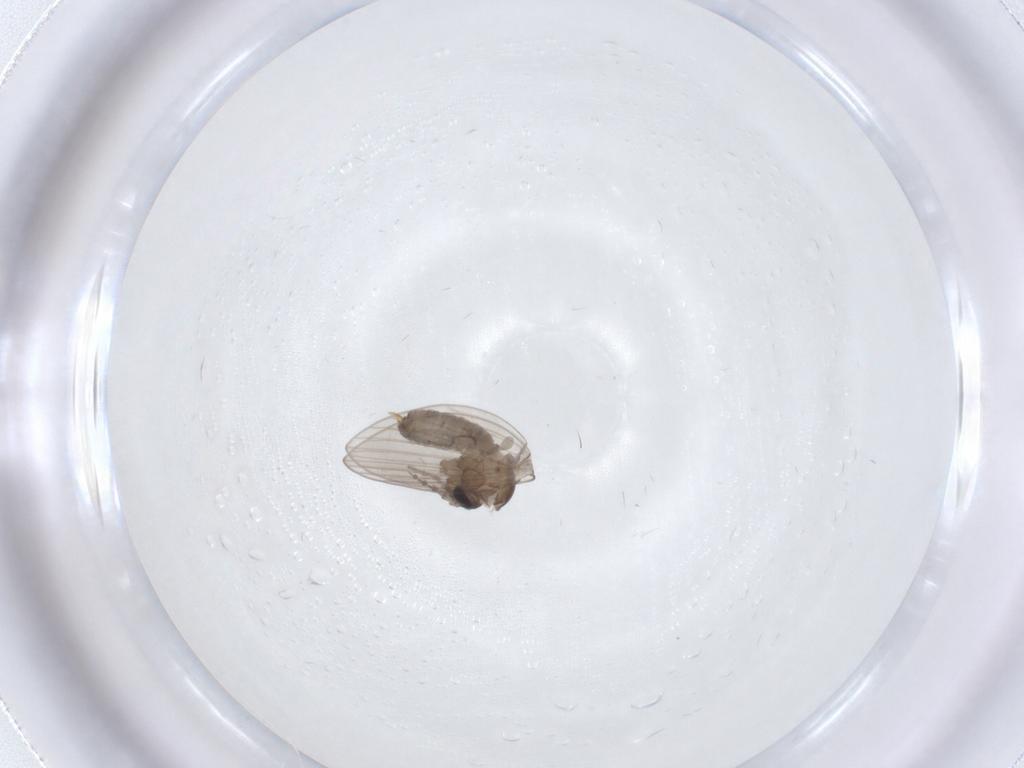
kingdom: Animalia
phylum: Arthropoda
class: Insecta
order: Diptera
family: Psychodidae
